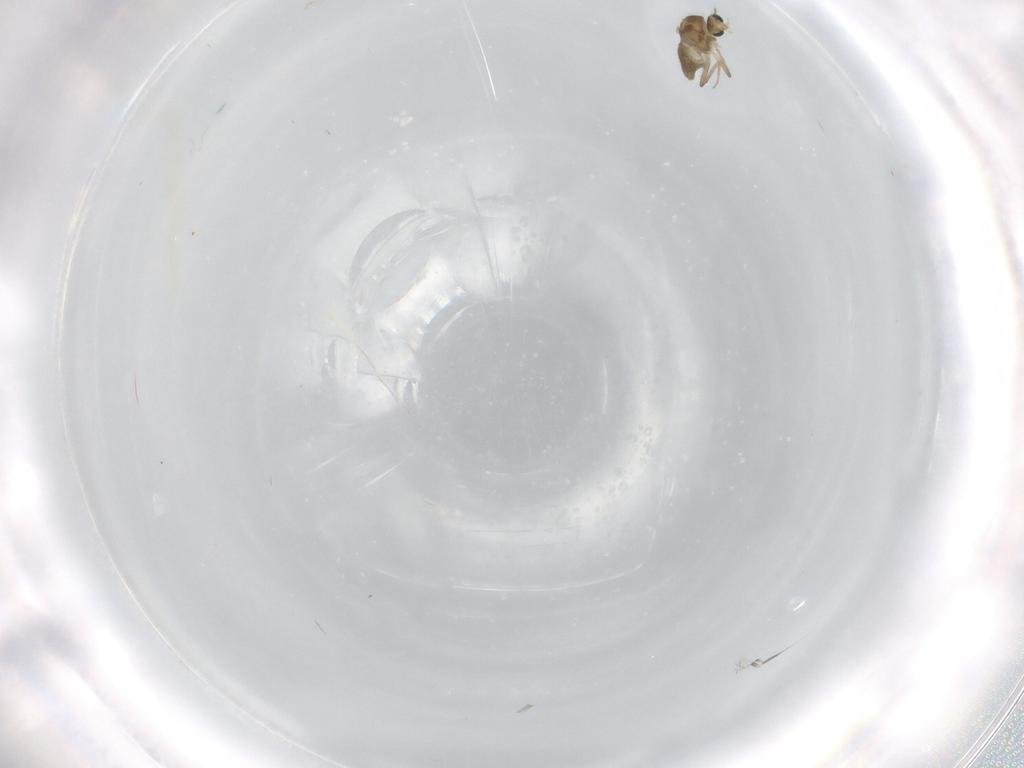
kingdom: Animalia
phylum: Arthropoda
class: Insecta
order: Diptera
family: Chironomidae
